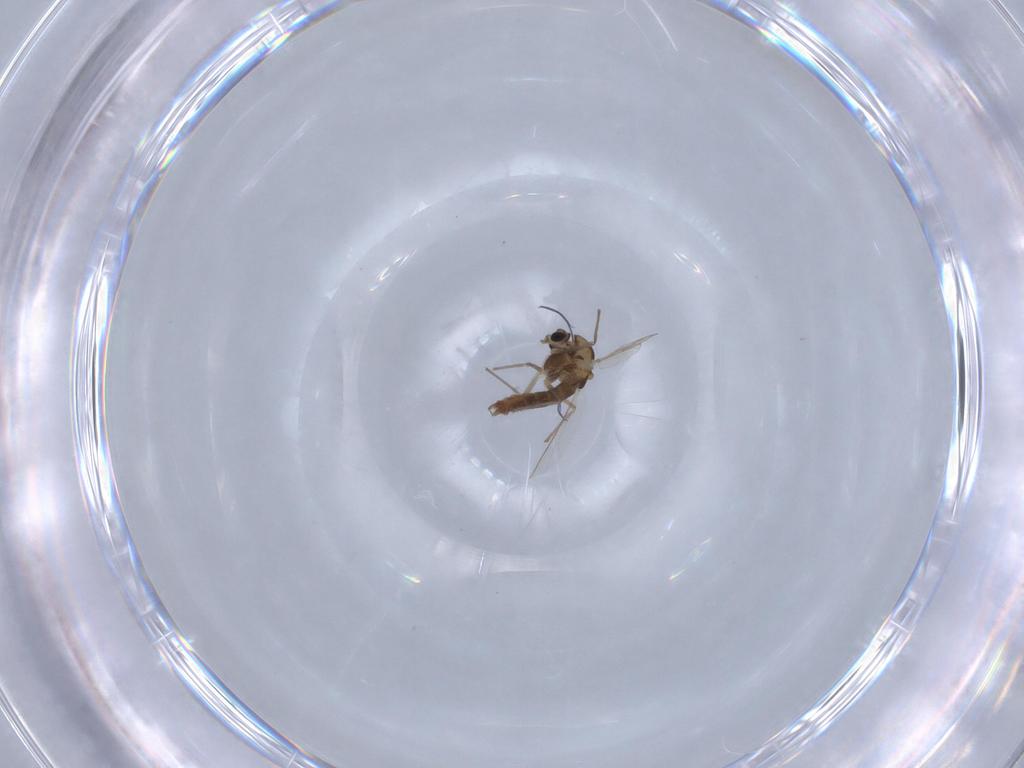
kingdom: Animalia
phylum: Arthropoda
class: Insecta
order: Diptera
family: Chironomidae
